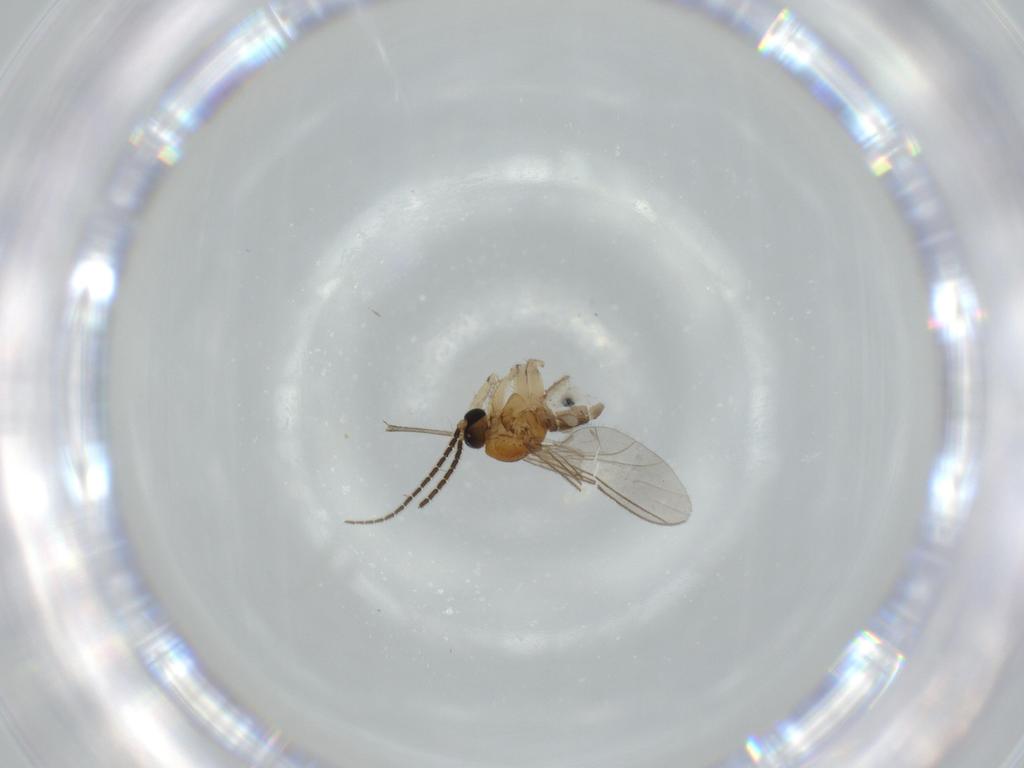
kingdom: Animalia
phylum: Arthropoda
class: Insecta
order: Diptera
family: Sciaridae
